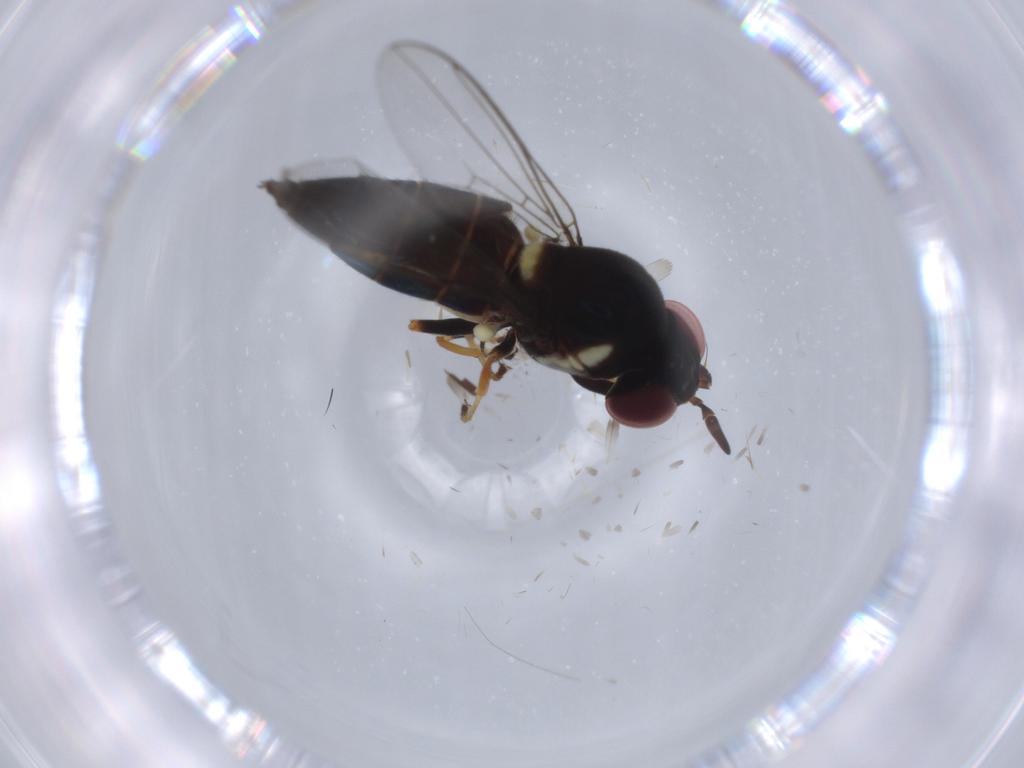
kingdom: Animalia
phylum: Arthropoda
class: Insecta
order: Diptera
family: Chloropidae
